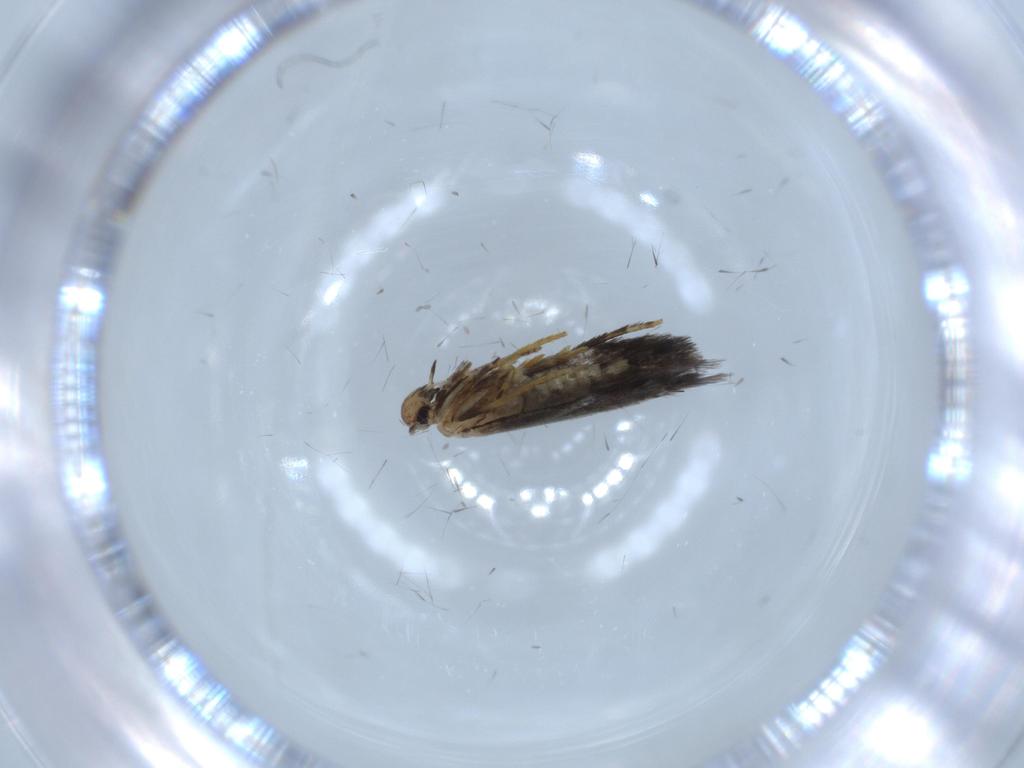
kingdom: Animalia
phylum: Arthropoda
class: Insecta
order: Lepidoptera
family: Heliozelidae
